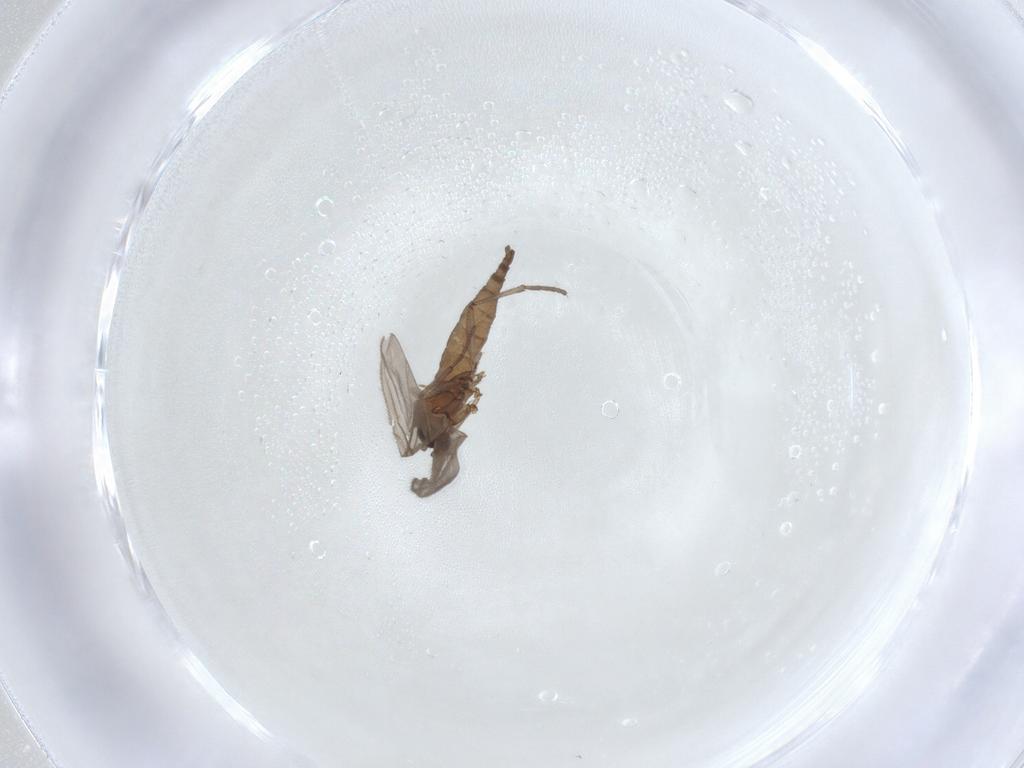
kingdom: Animalia
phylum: Arthropoda
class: Insecta
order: Diptera
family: Sciaridae
